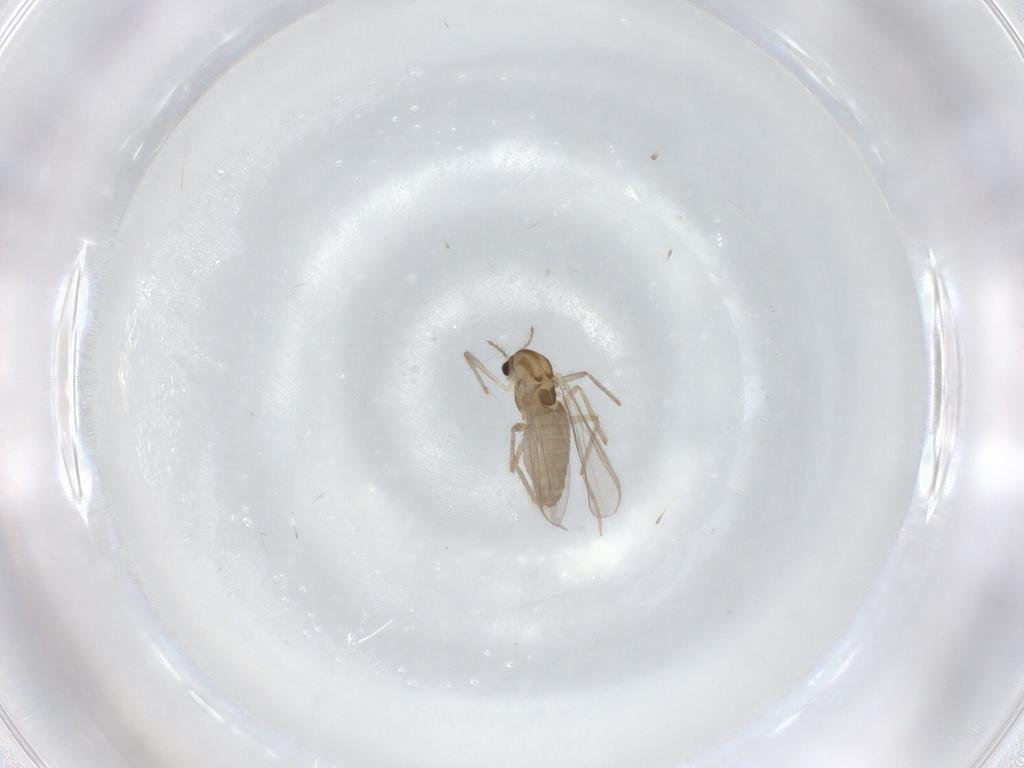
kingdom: Animalia
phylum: Arthropoda
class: Insecta
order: Diptera
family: Chironomidae
